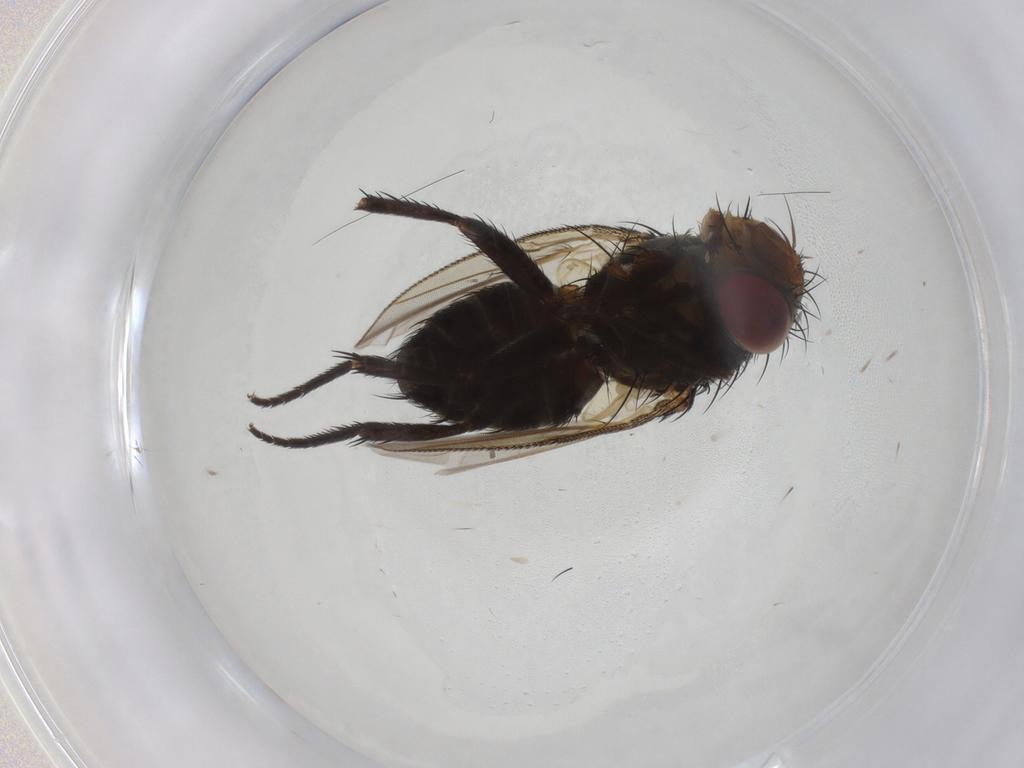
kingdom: Animalia
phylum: Arthropoda
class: Insecta
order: Diptera
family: Tachinidae
